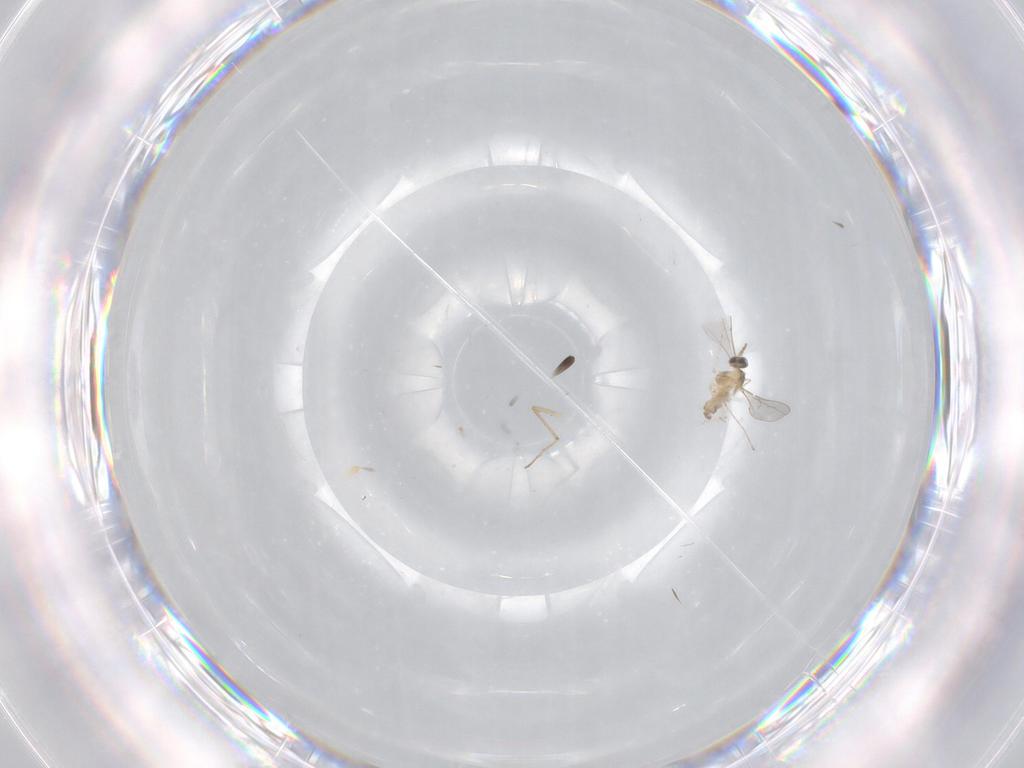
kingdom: Animalia
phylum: Arthropoda
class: Insecta
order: Diptera
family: Cecidomyiidae
